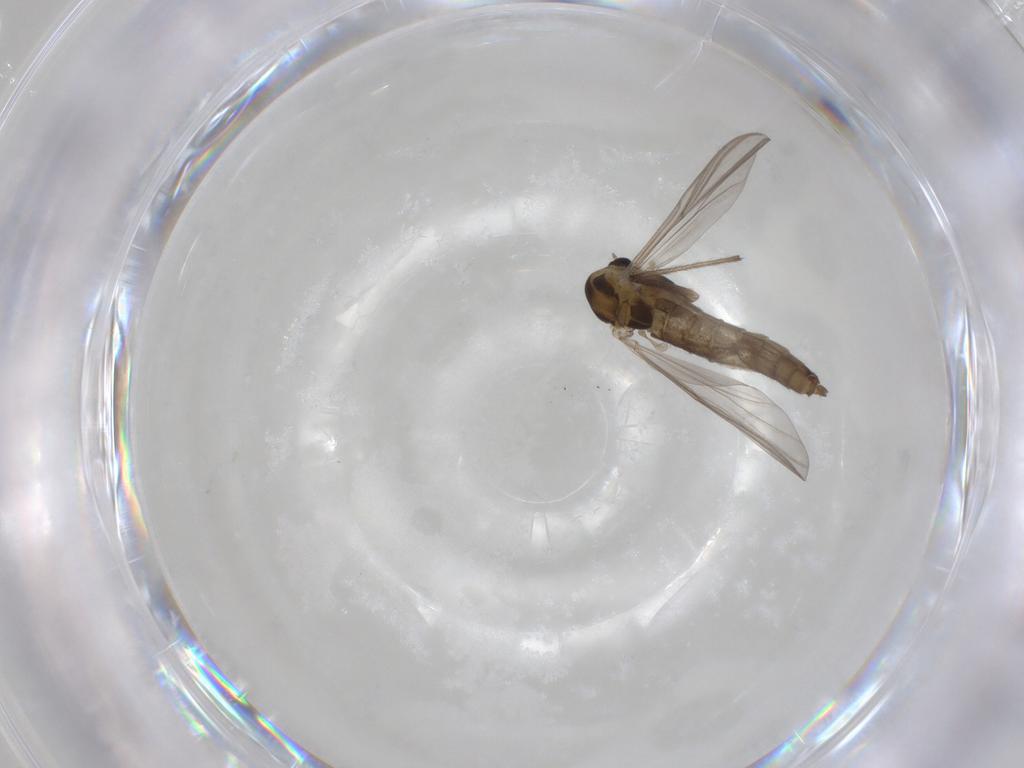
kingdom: Animalia
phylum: Arthropoda
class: Insecta
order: Diptera
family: Chironomidae
